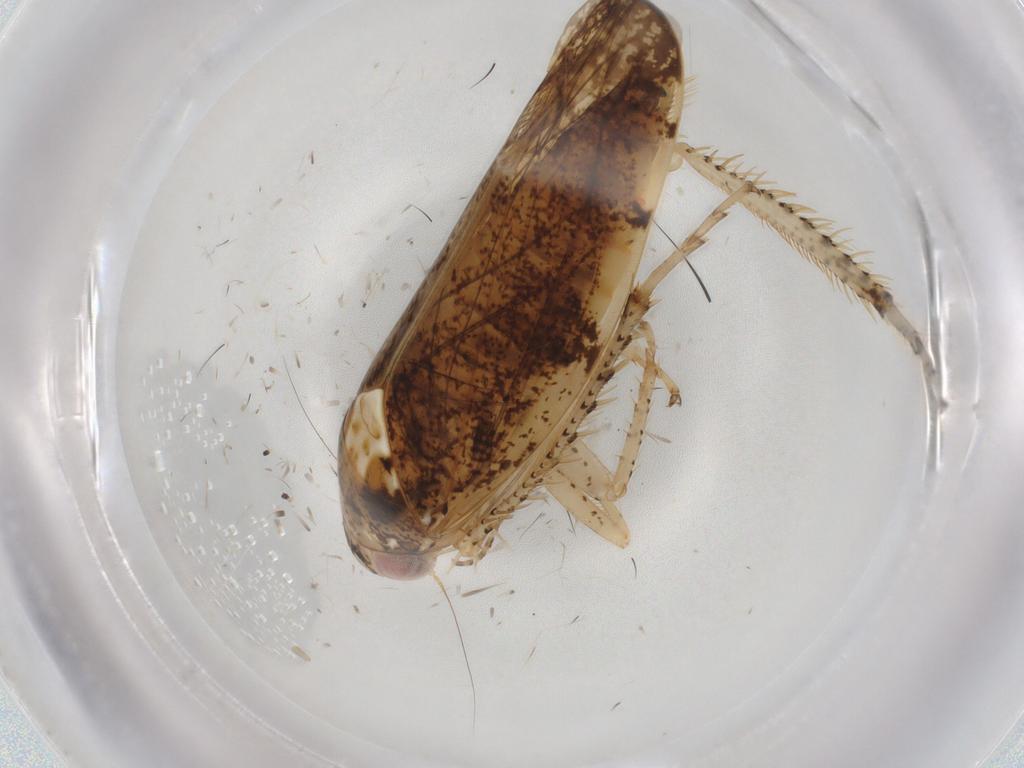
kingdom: Animalia
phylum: Arthropoda
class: Insecta
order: Hemiptera
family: Cicadellidae
